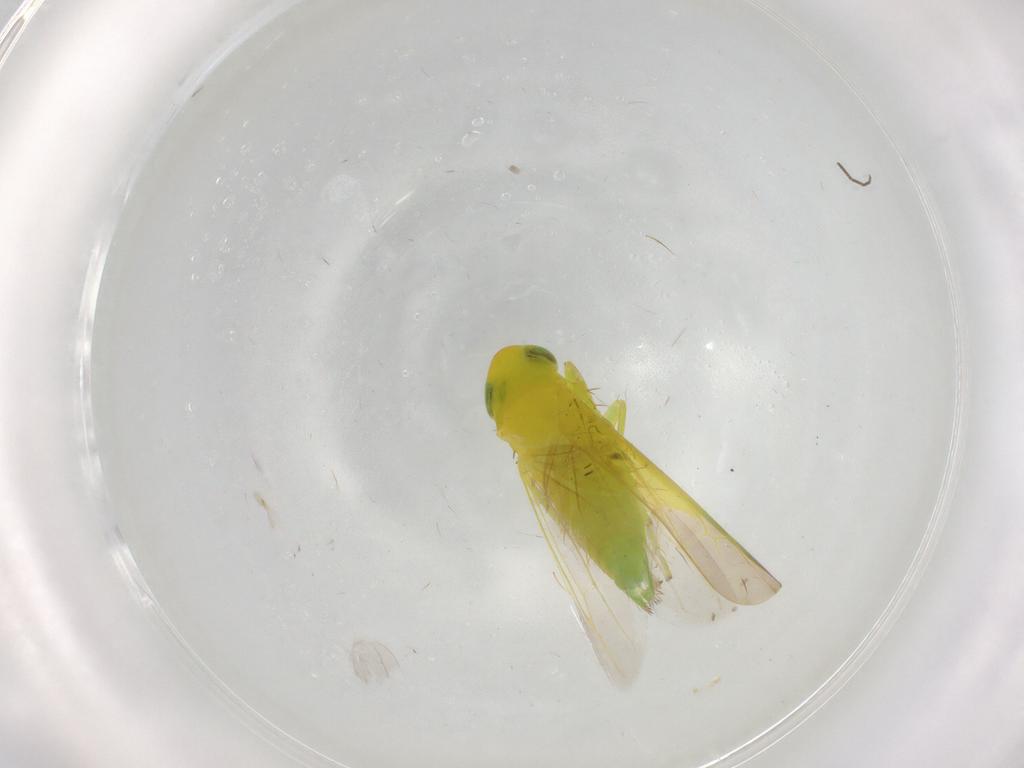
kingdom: Animalia
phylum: Arthropoda
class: Insecta
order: Hemiptera
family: Cicadellidae
